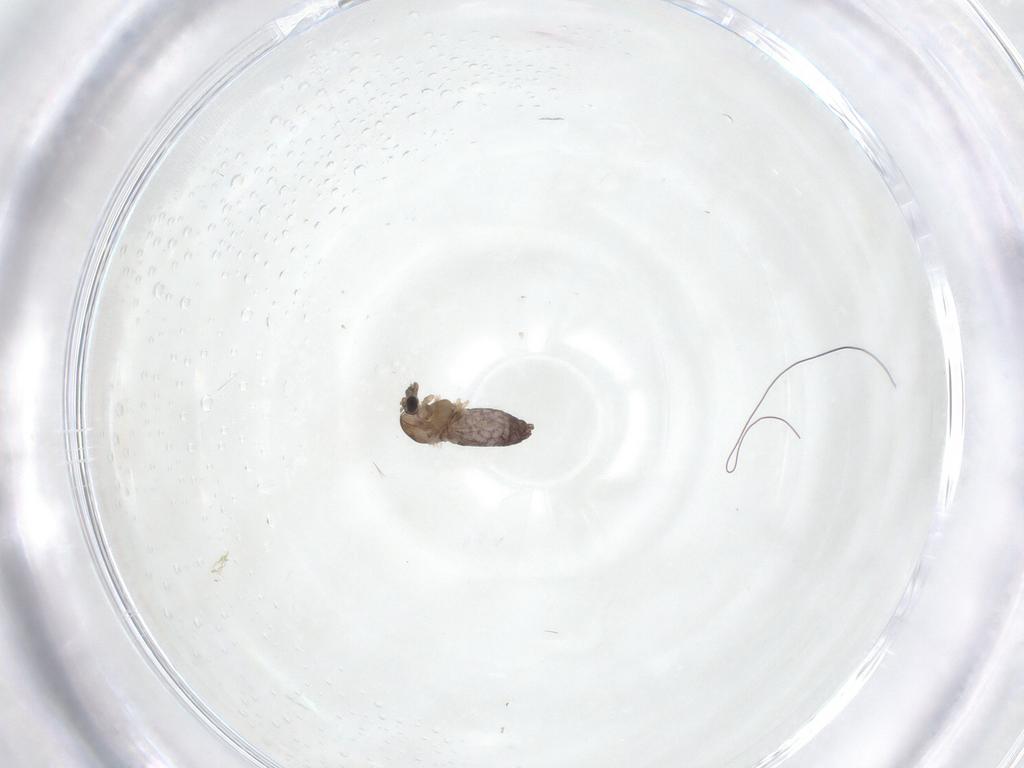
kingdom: Animalia
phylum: Arthropoda
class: Insecta
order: Diptera
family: Chironomidae
